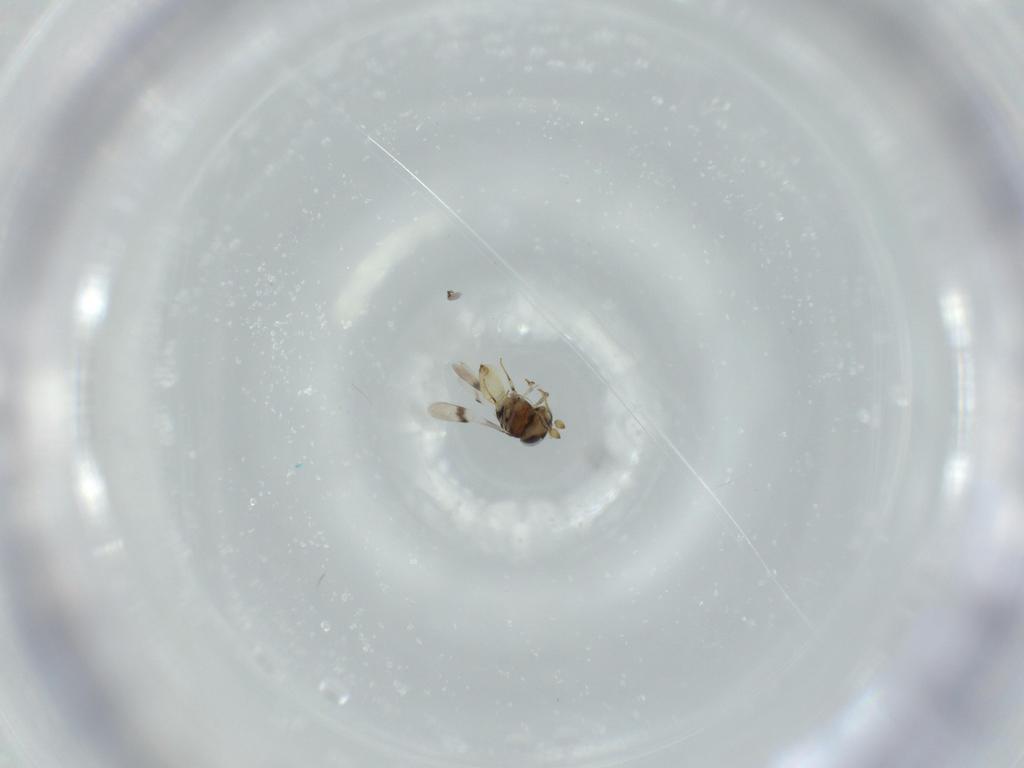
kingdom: Animalia
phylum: Arthropoda
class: Insecta
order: Hymenoptera
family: Scelionidae
